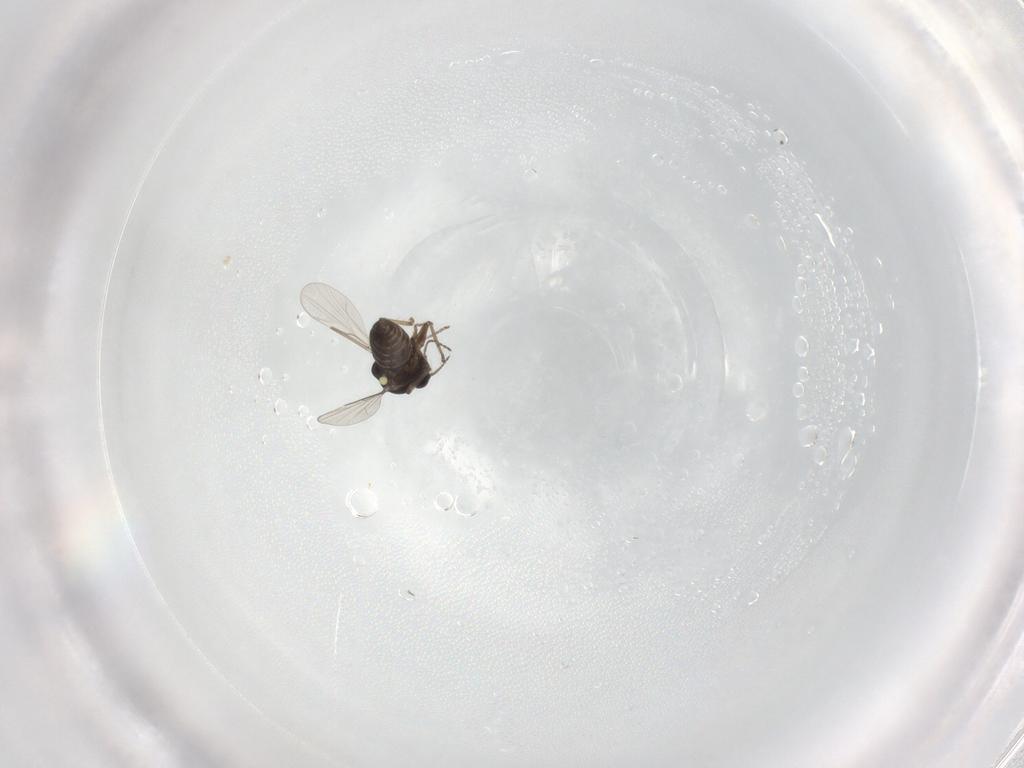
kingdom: Animalia
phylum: Arthropoda
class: Insecta
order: Diptera
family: Ceratopogonidae
